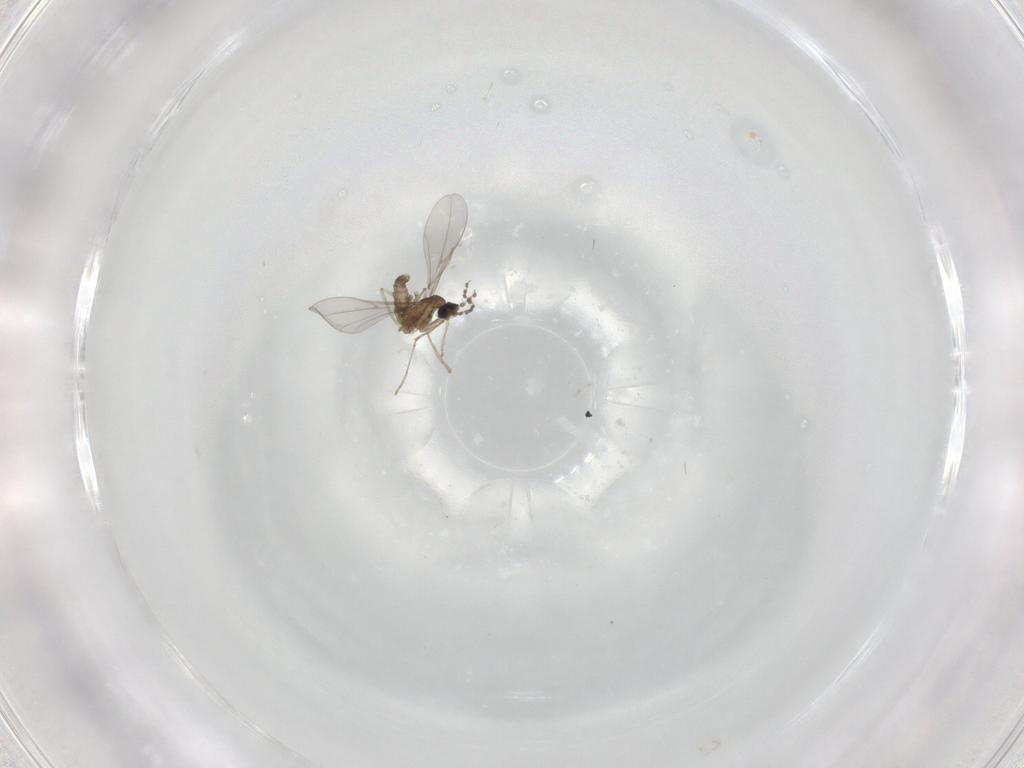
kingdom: Animalia
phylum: Arthropoda
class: Insecta
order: Diptera
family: Cecidomyiidae
